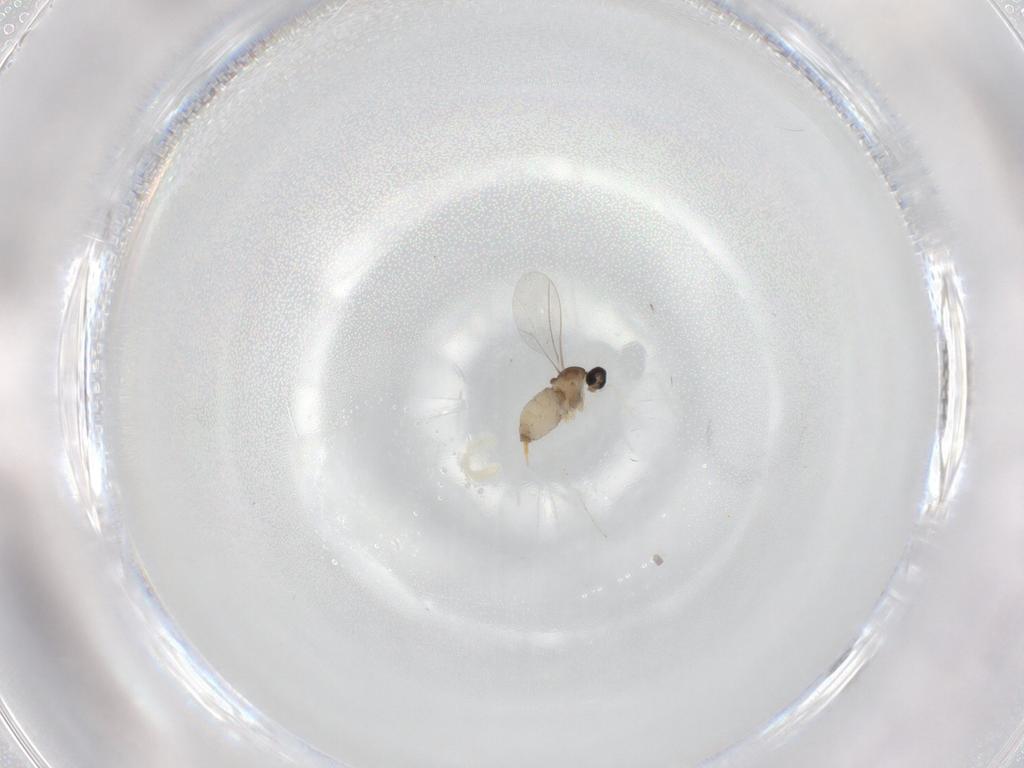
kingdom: Animalia
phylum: Arthropoda
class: Insecta
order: Diptera
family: Cecidomyiidae
